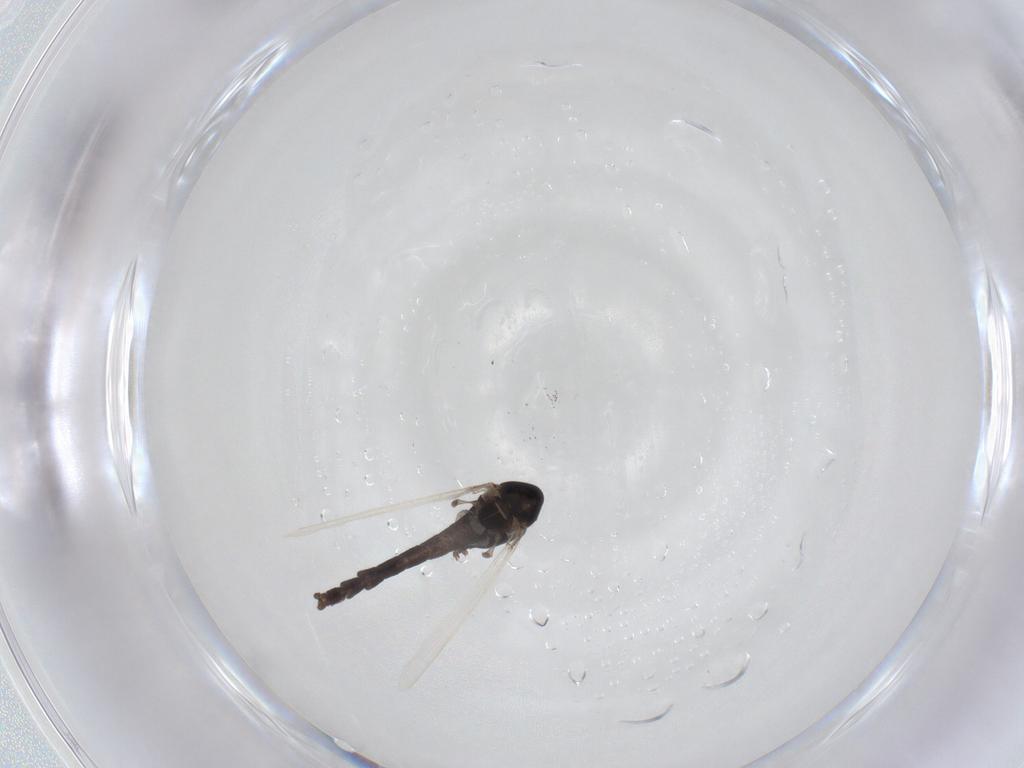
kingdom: Animalia
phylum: Arthropoda
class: Insecta
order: Diptera
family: Chironomidae
